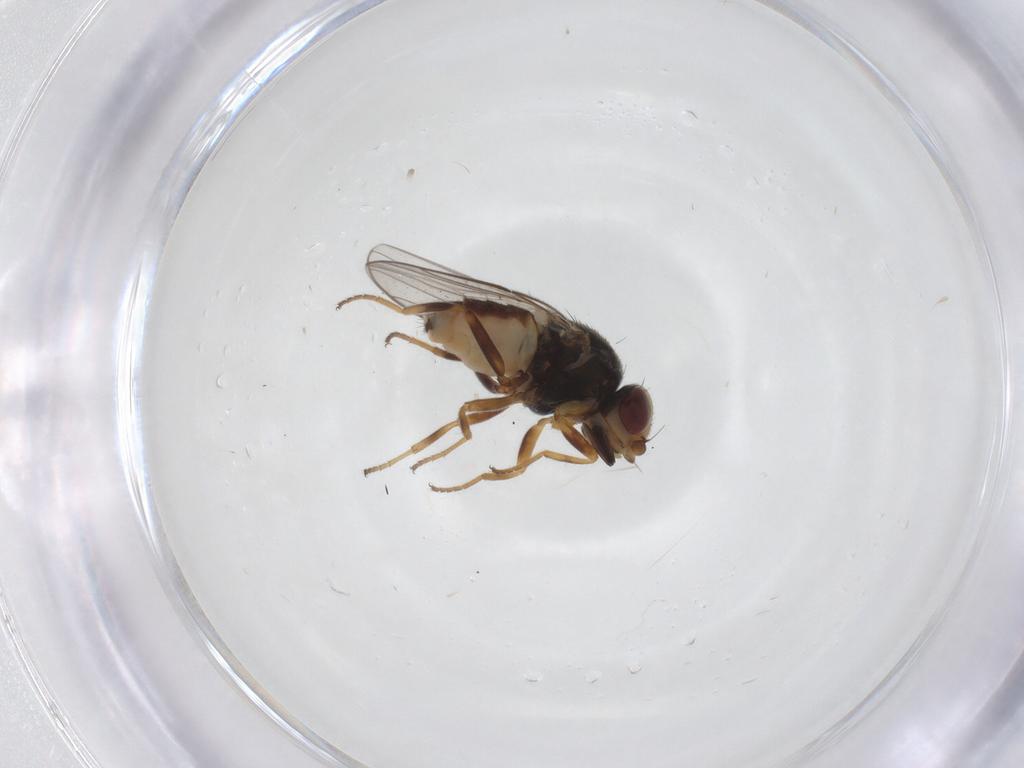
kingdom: Animalia
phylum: Arthropoda
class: Insecta
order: Diptera
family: Chloropidae
